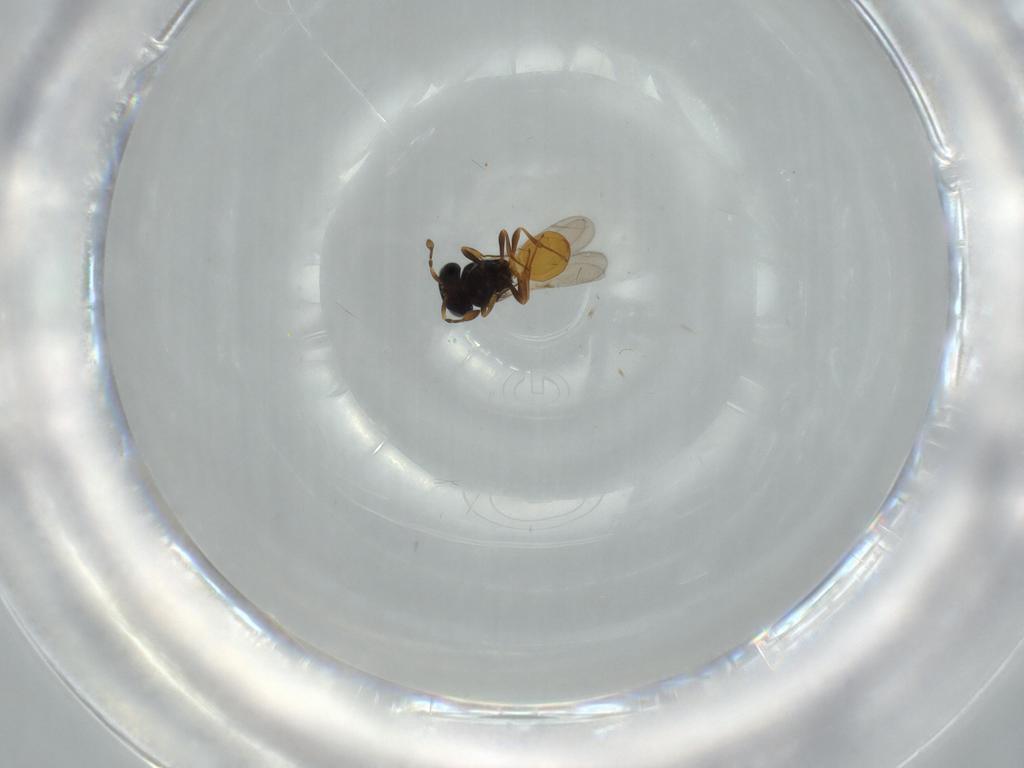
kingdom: Animalia
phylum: Arthropoda
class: Insecta
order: Hymenoptera
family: Scelionidae
